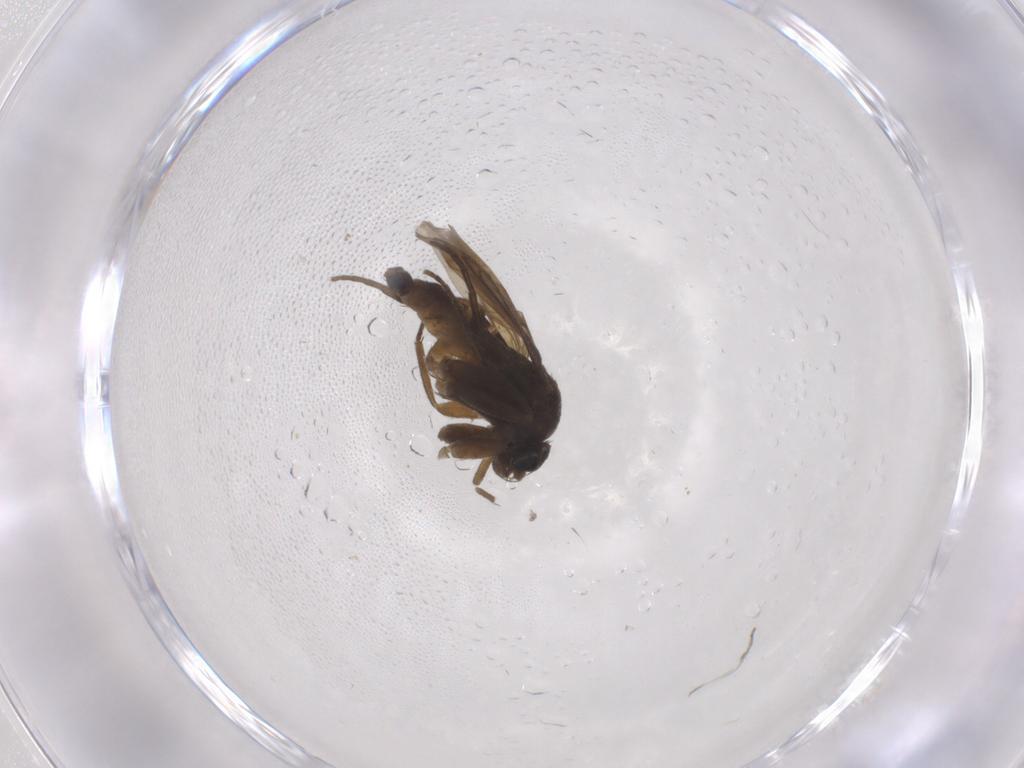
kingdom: Animalia
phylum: Arthropoda
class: Insecta
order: Diptera
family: Ceratopogonidae
